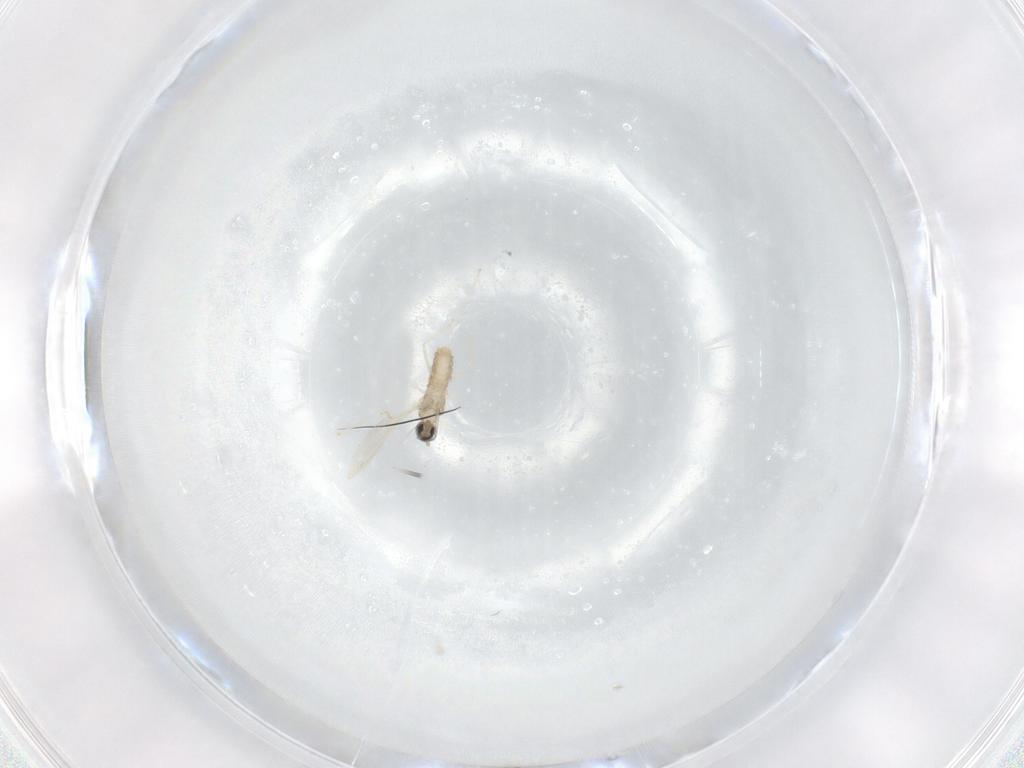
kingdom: Animalia
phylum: Arthropoda
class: Insecta
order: Diptera
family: Cecidomyiidae
